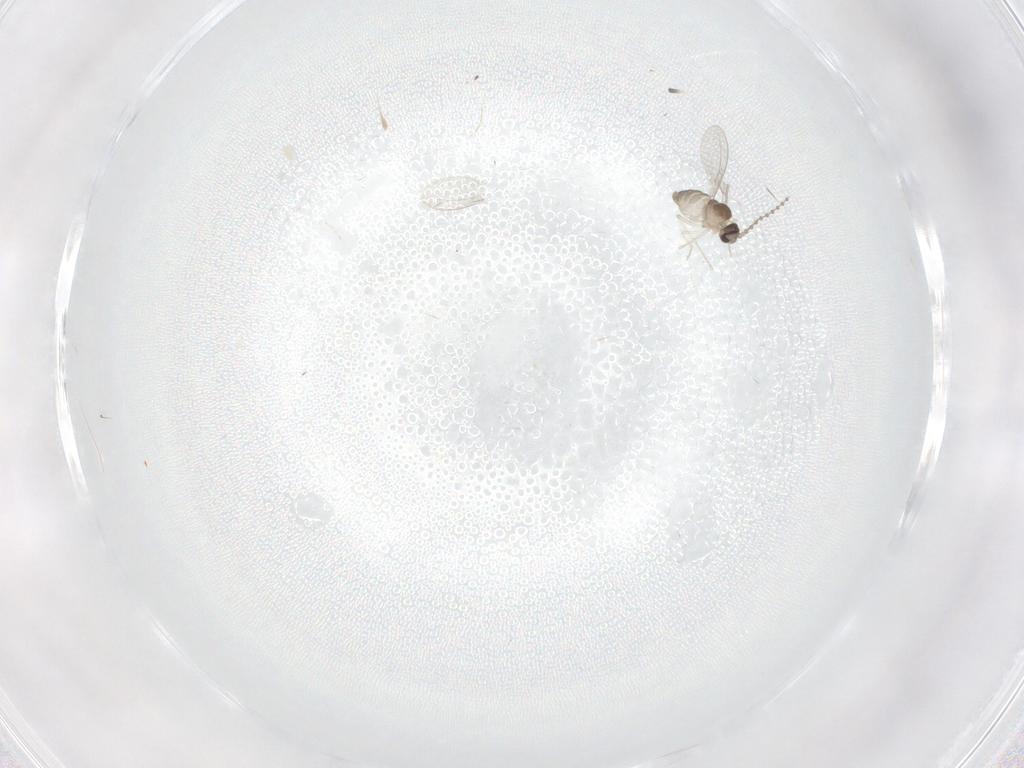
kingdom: Animalia
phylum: Arthropoda
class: Insecta
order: Diptera
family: Cecidomyiidae
